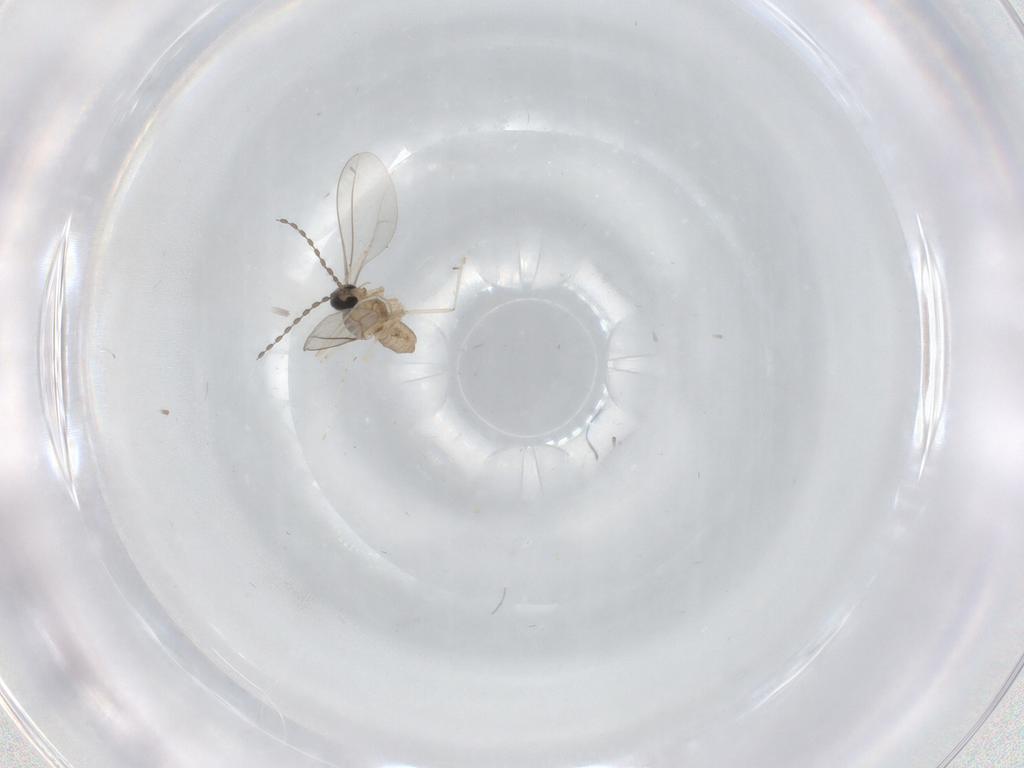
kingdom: Animalia
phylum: Arthropoda
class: Insecta
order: Diptera
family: Cecidomyiidae
